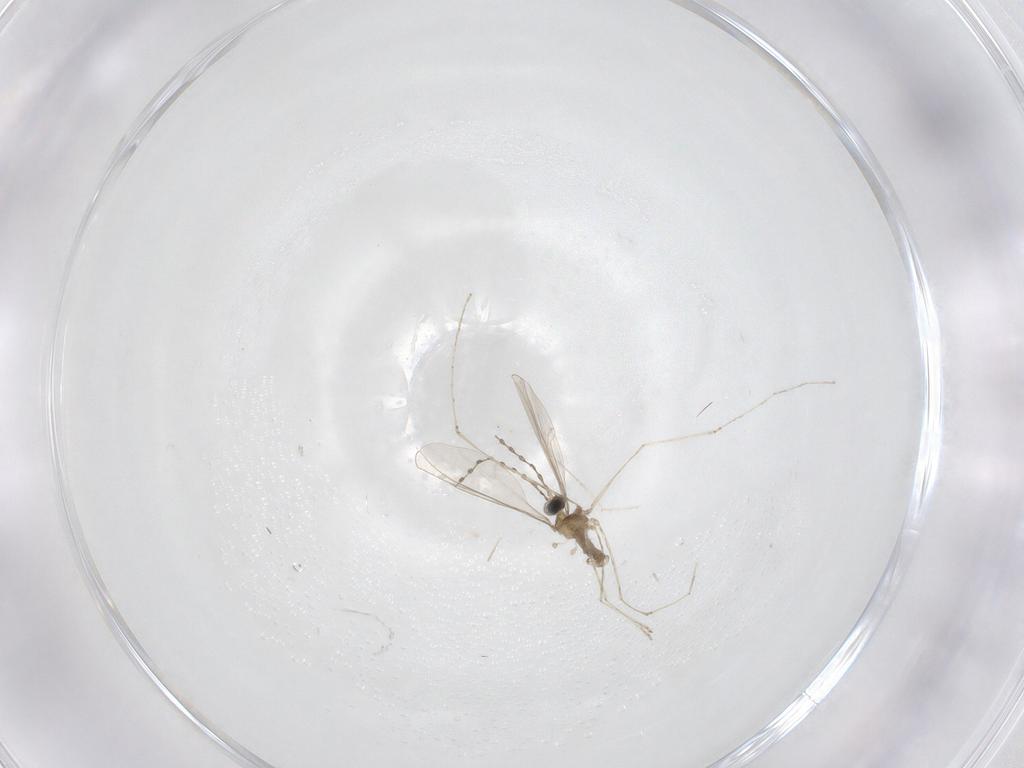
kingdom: Animalia
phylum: Arthropoda
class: Insecta
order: Diptera
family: Cecidomyiidae
